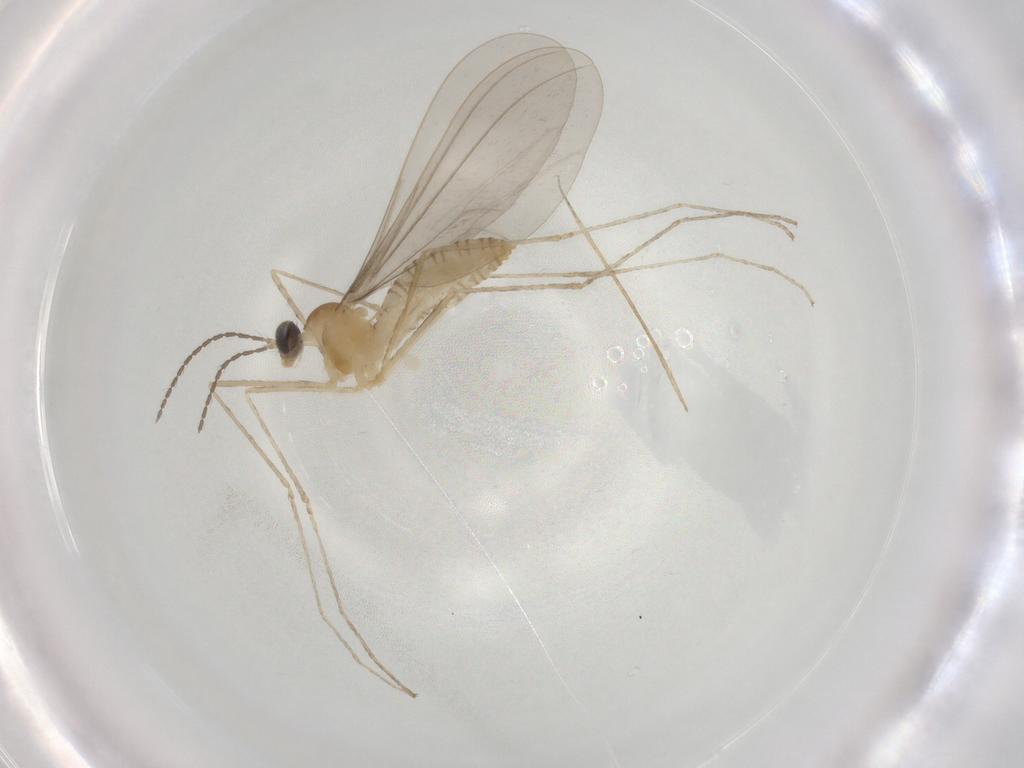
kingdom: Animalia
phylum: Arthropoda
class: Insecta
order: Diptera
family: Cecidomyiidae
